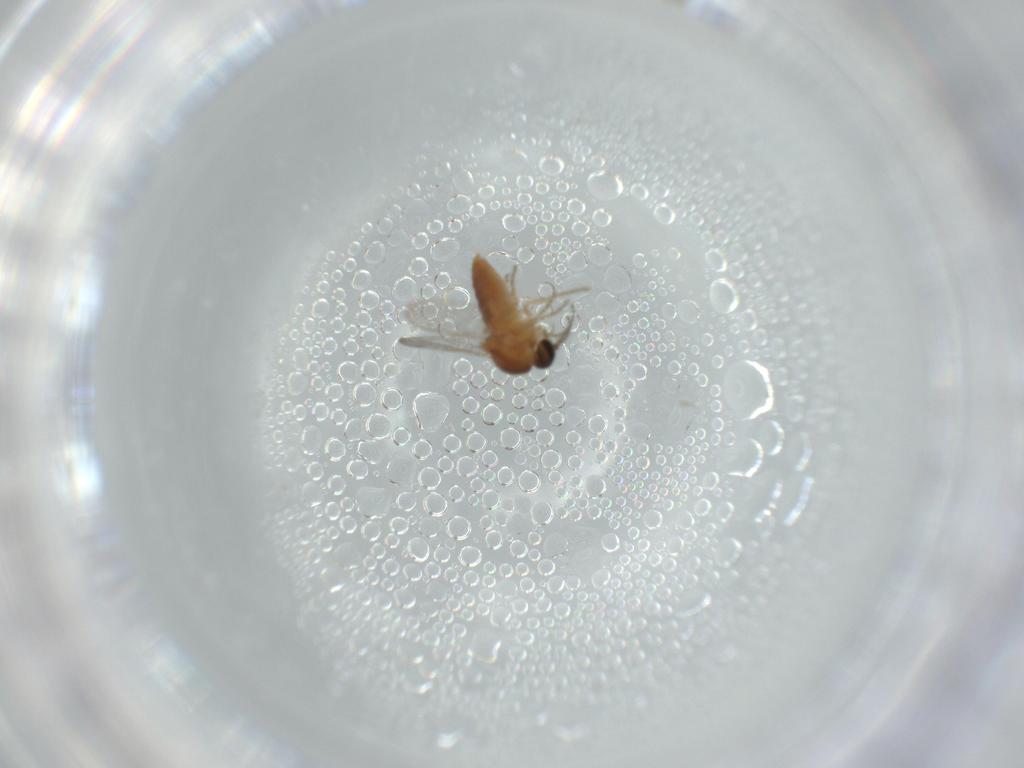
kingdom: Animalia
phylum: Arthropoda
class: Insecta
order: Diptera
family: Ceratopogonidae
